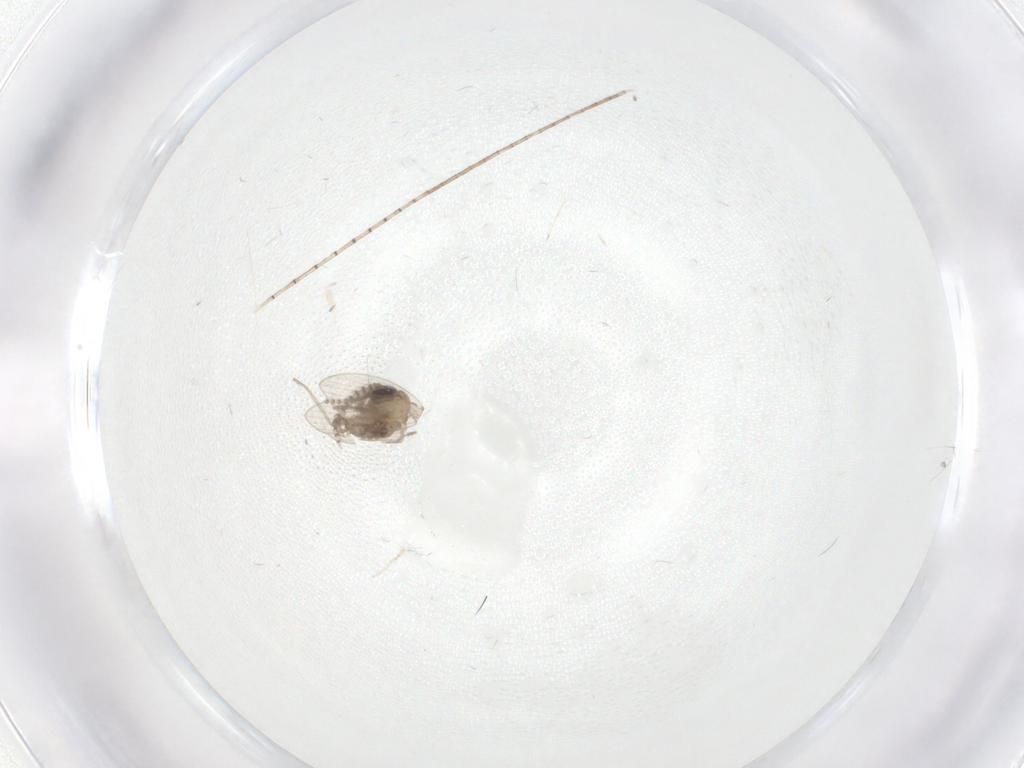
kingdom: Animalia
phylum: Arthropoda
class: Insecta
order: Diptera
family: Psychodidae
